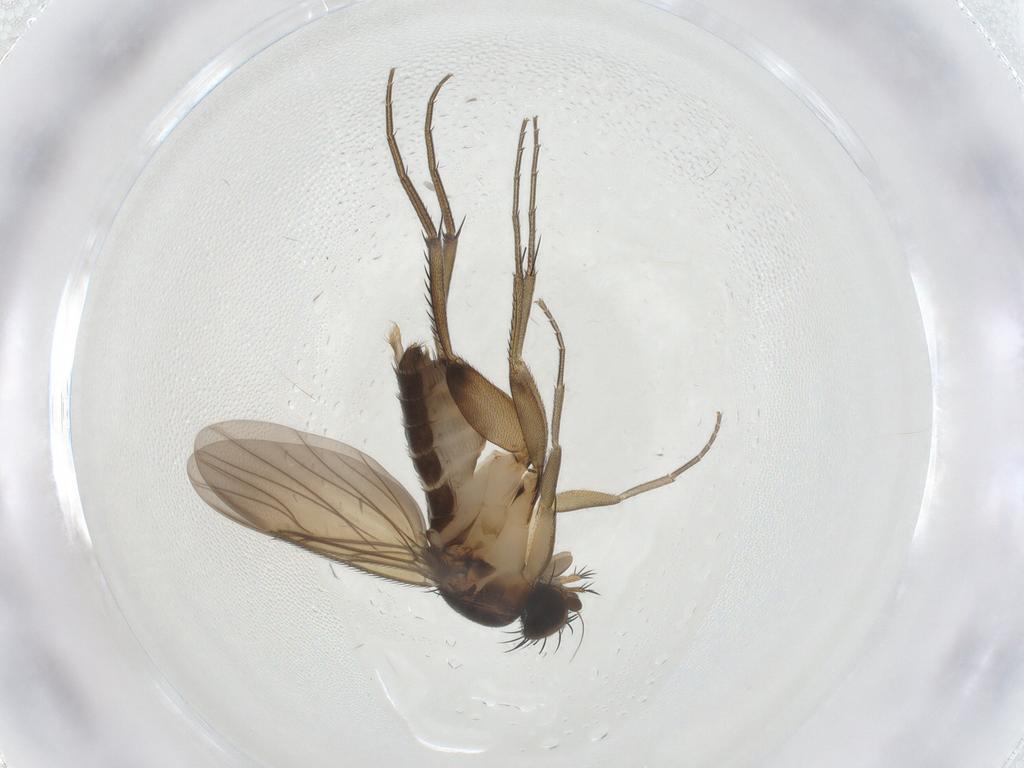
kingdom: Animalia
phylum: Arthropoda
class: Insecta
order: Diptera
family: Phoridae
